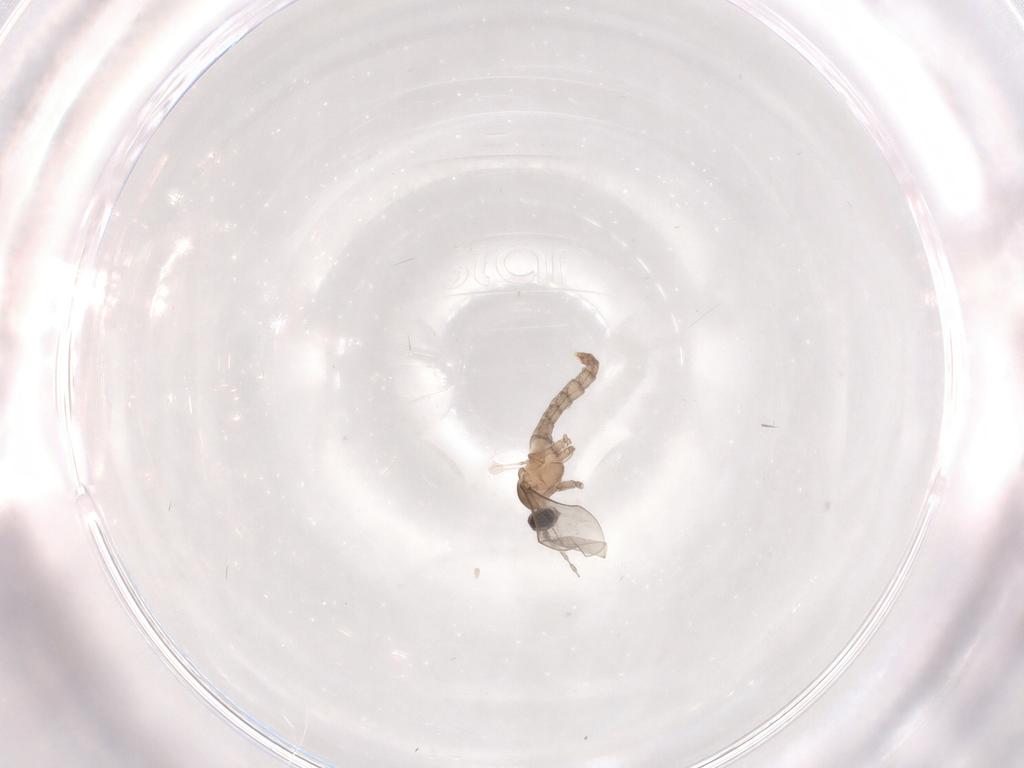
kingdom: Animalia
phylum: Arthropoda
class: Insecta
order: Diptera
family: Cecidomyiidae
